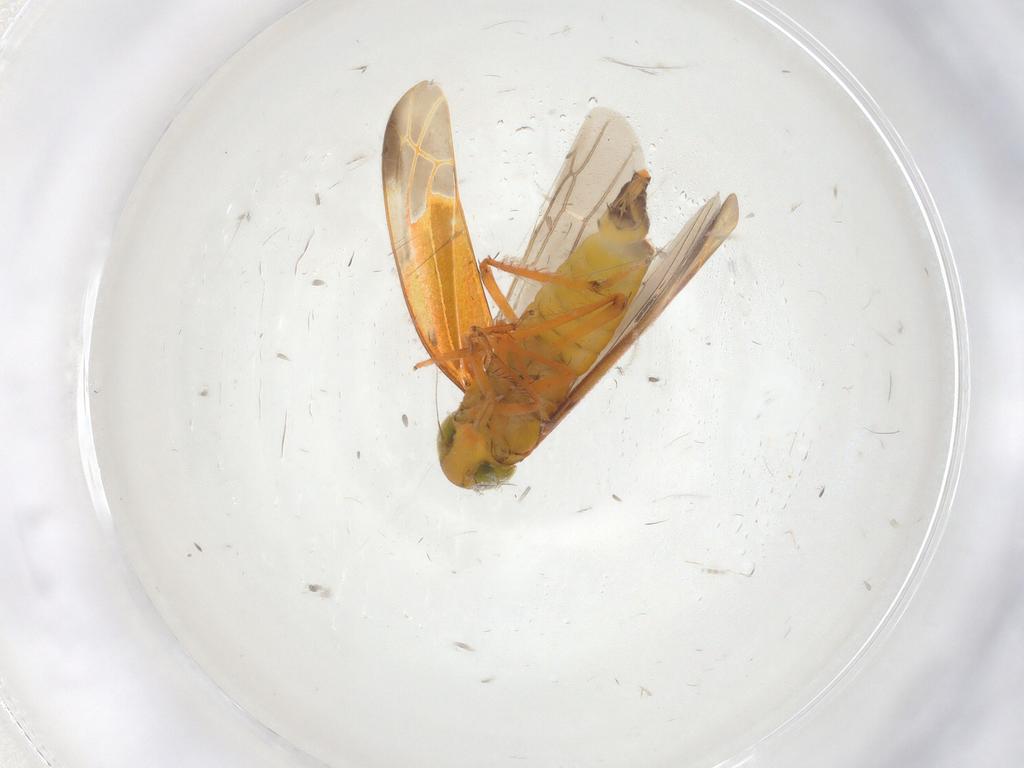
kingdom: Animalia
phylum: Arthropoda
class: Insecta
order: Hemiptera
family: Cicadellidae
